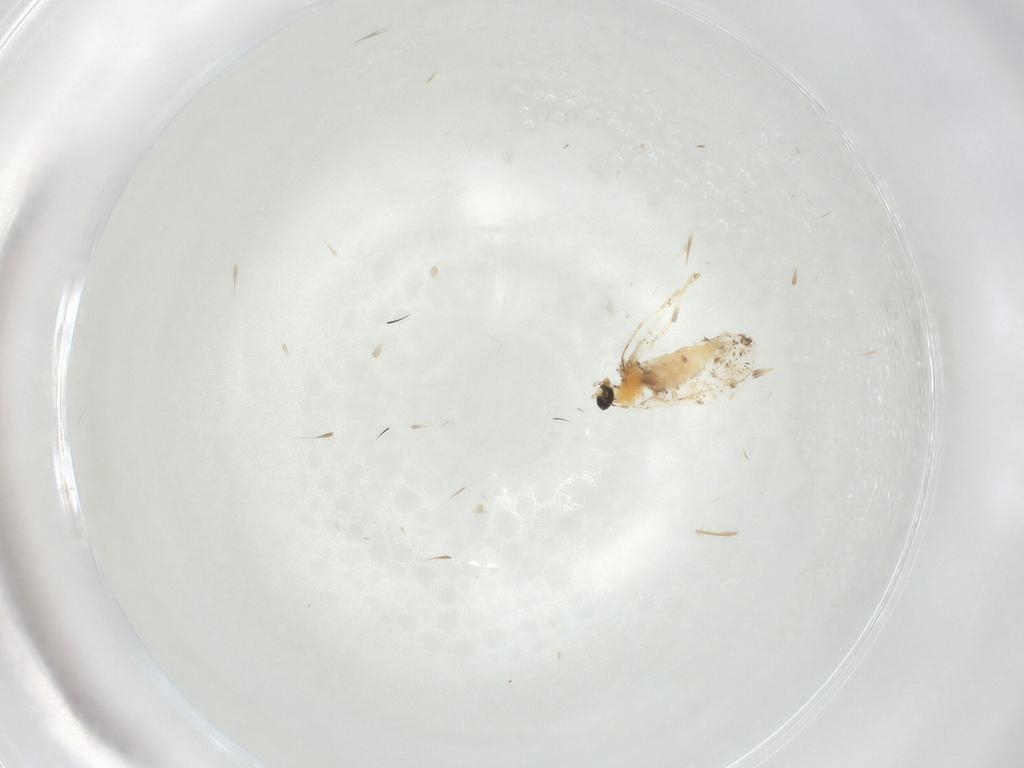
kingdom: Animalia
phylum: Arthropoda
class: Insecta
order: Diptera
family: Cecidomyiidae
